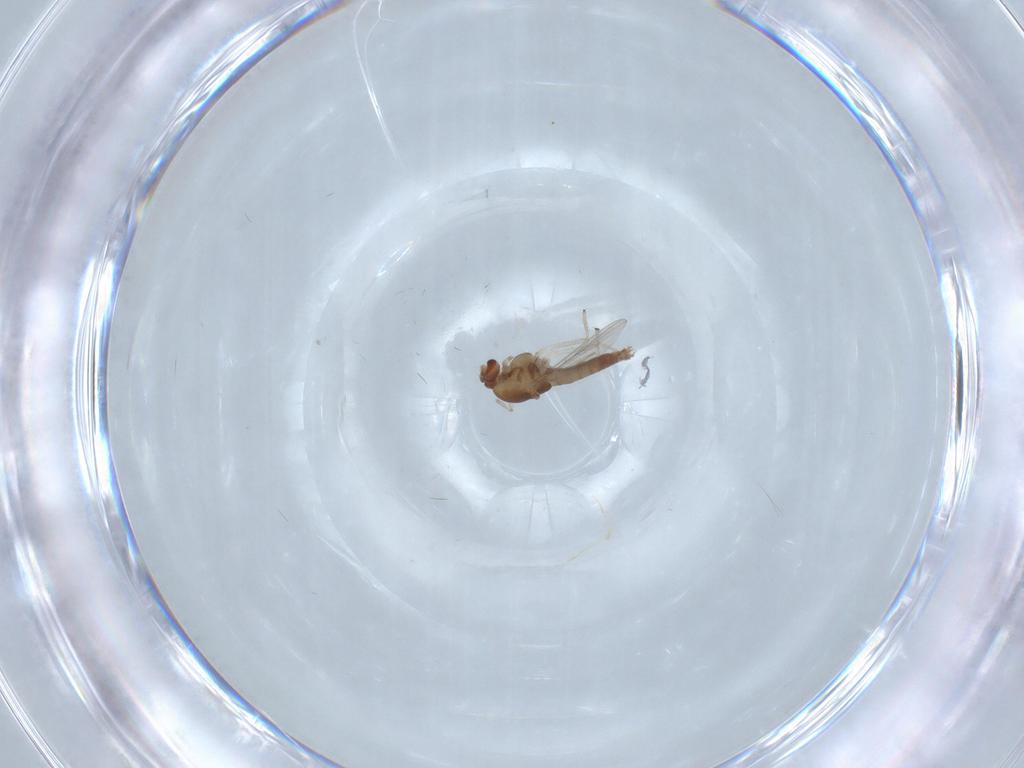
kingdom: Animalia
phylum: Arthropoda
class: Insecta
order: Diptera
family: Chironomidae
